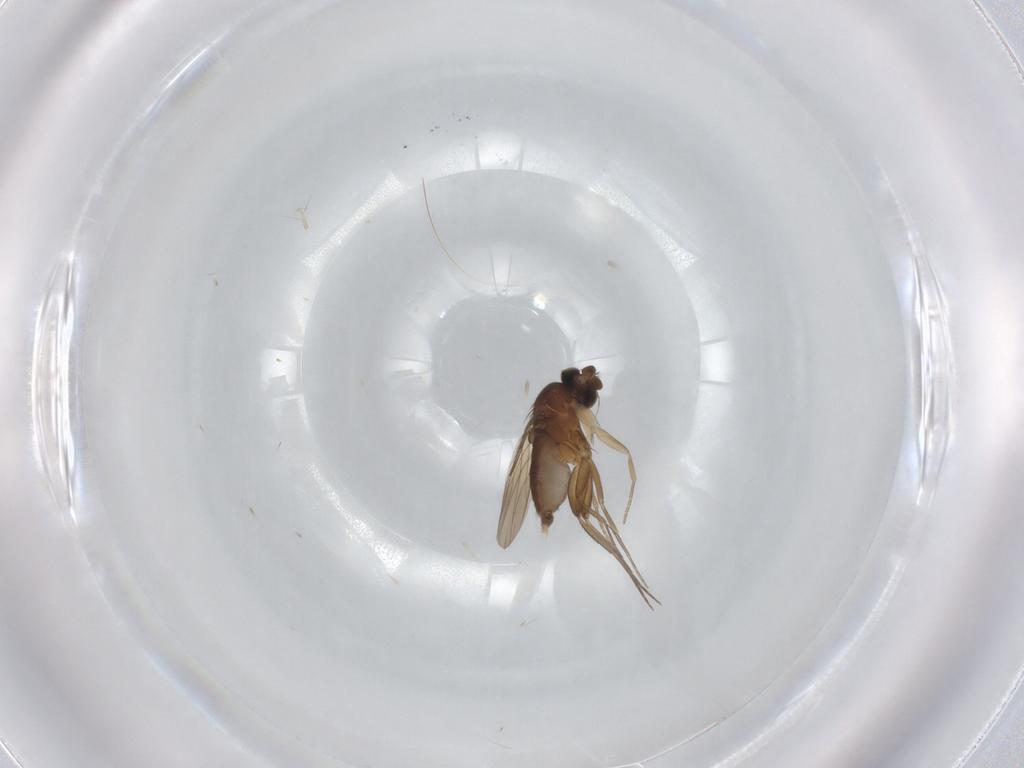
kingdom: Animalia
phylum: Arthropoda
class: Insecta
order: Diptera
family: Phoridae
